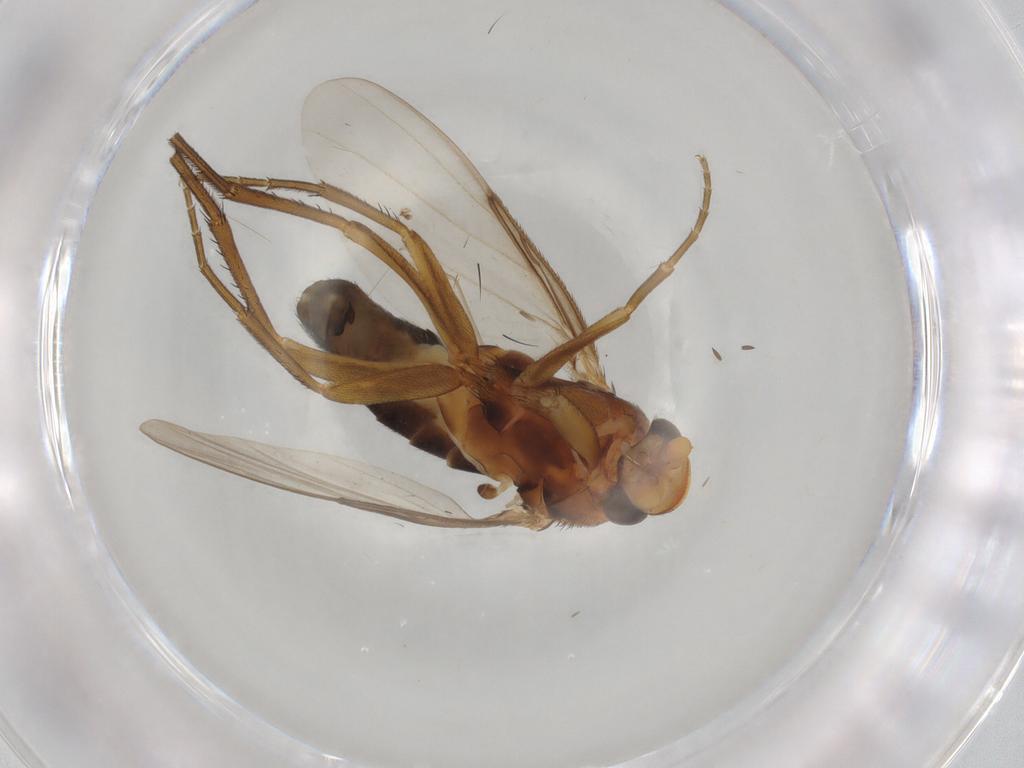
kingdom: Animalia
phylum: Arthropoda
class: Insecta
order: Diptera
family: Phoridae
